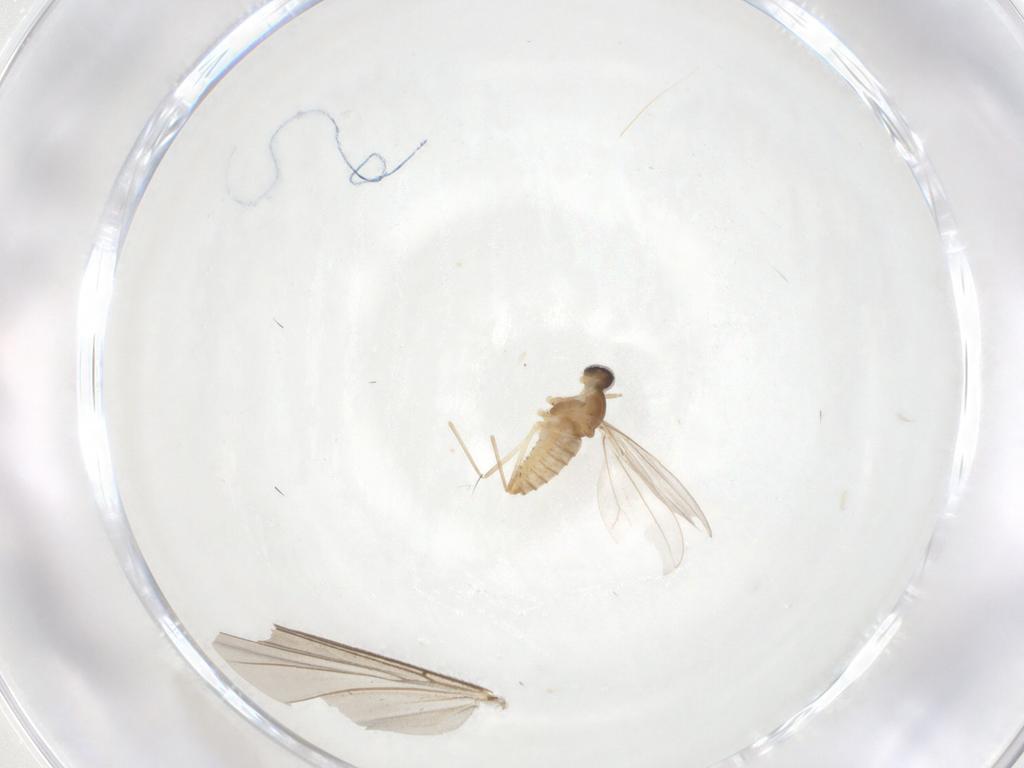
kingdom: Animalia
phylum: Arthropoda
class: Insecta
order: Diptera
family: Cecidomyiidae
